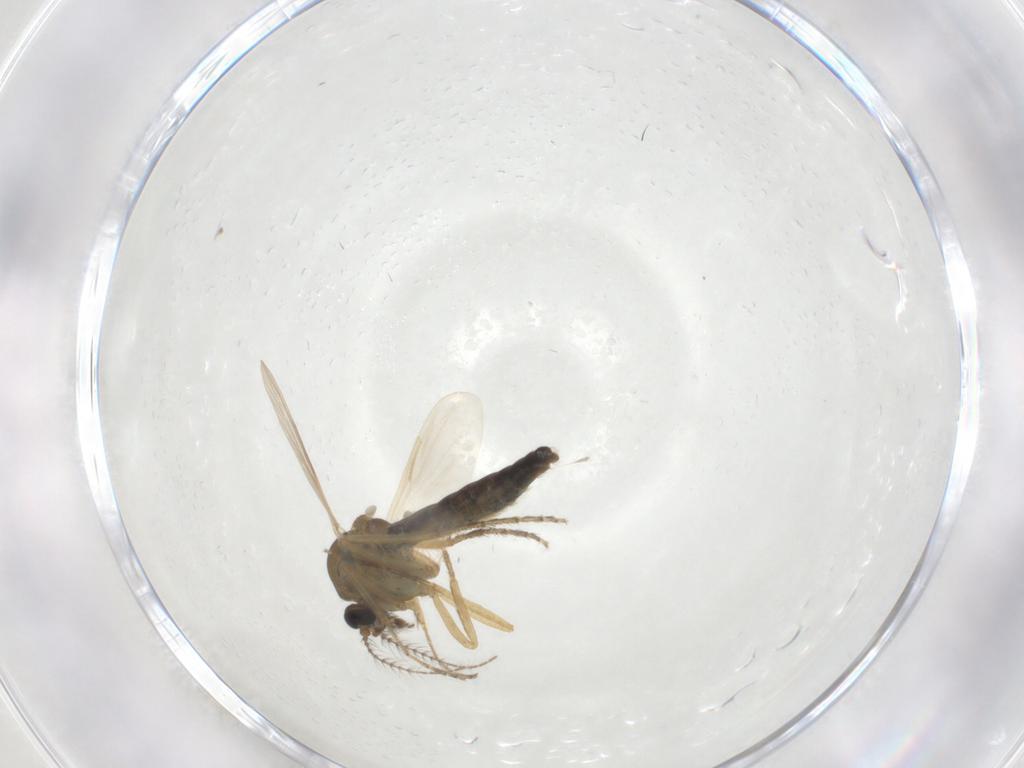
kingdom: Animalia
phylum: Arthropoda
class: Insecta
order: Diptera
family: Ceratopogonidae
